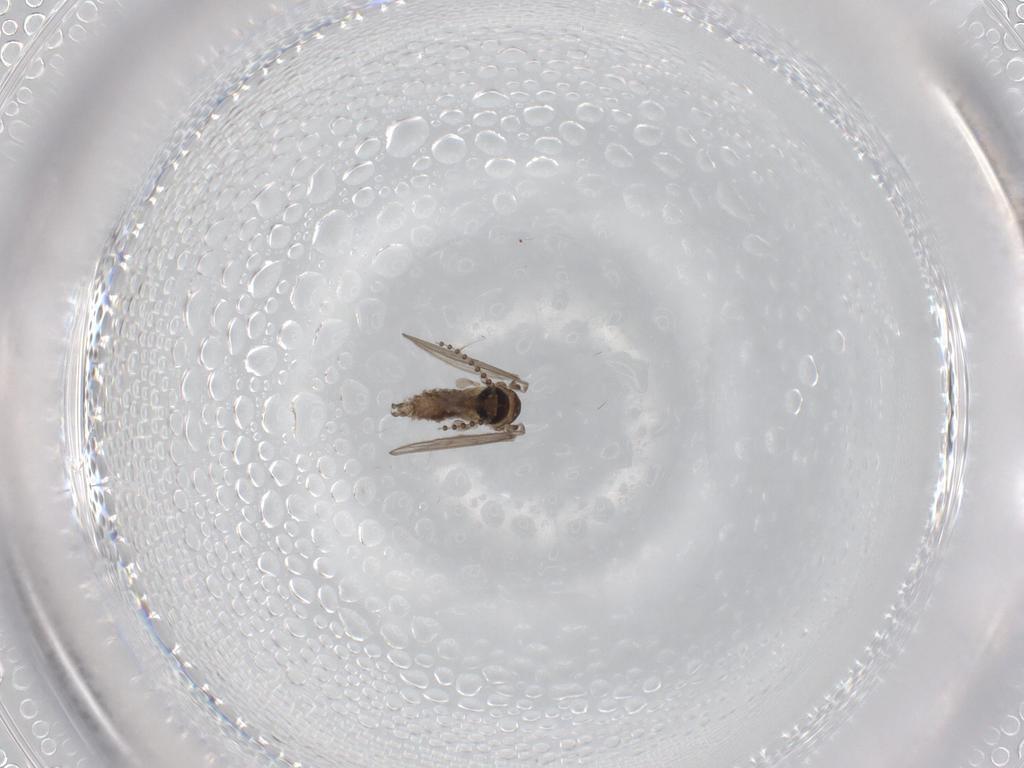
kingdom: Animalia
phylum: Arthropoda
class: Insecta
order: Diptera
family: Psychodidae
